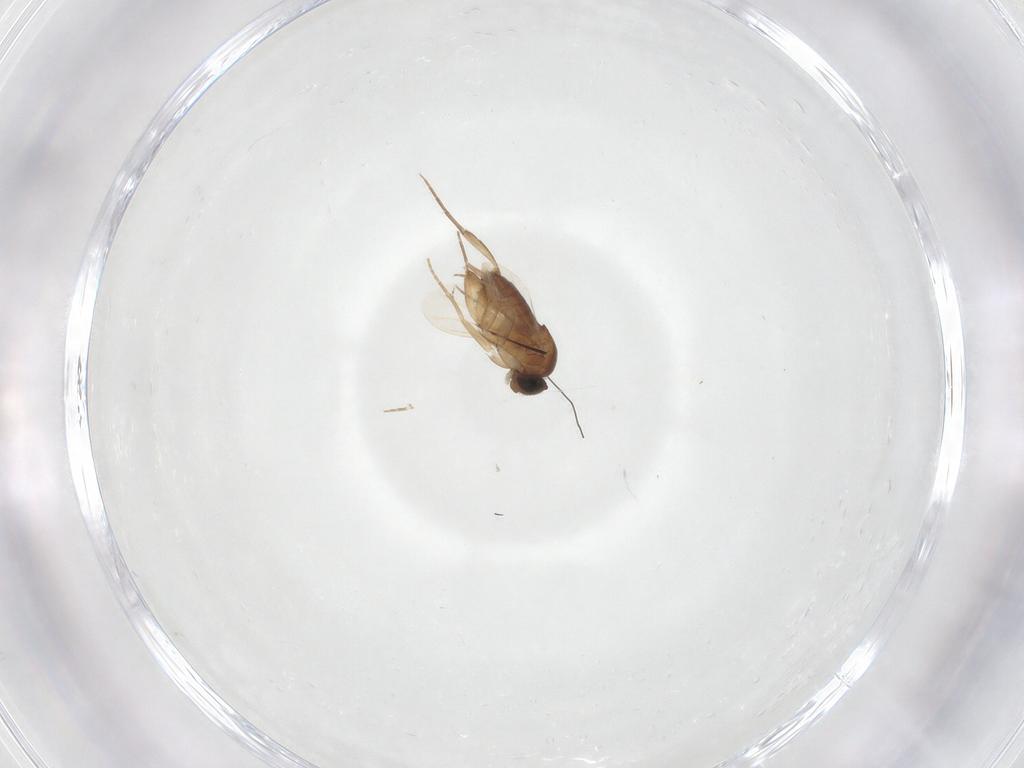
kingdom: Animalia
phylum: Arthropoda
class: Insecta
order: Diptera
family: Phoridae
